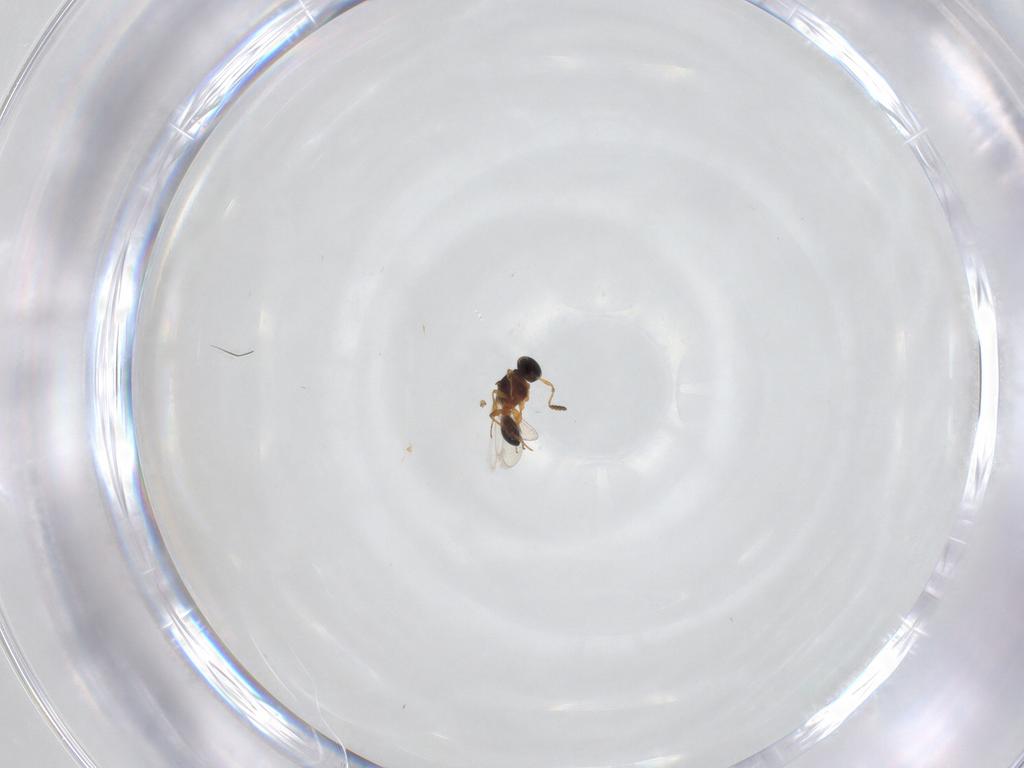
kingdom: Animalia
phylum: Arthropoda
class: Insecta
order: Hymenoptera
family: Platygastridae
